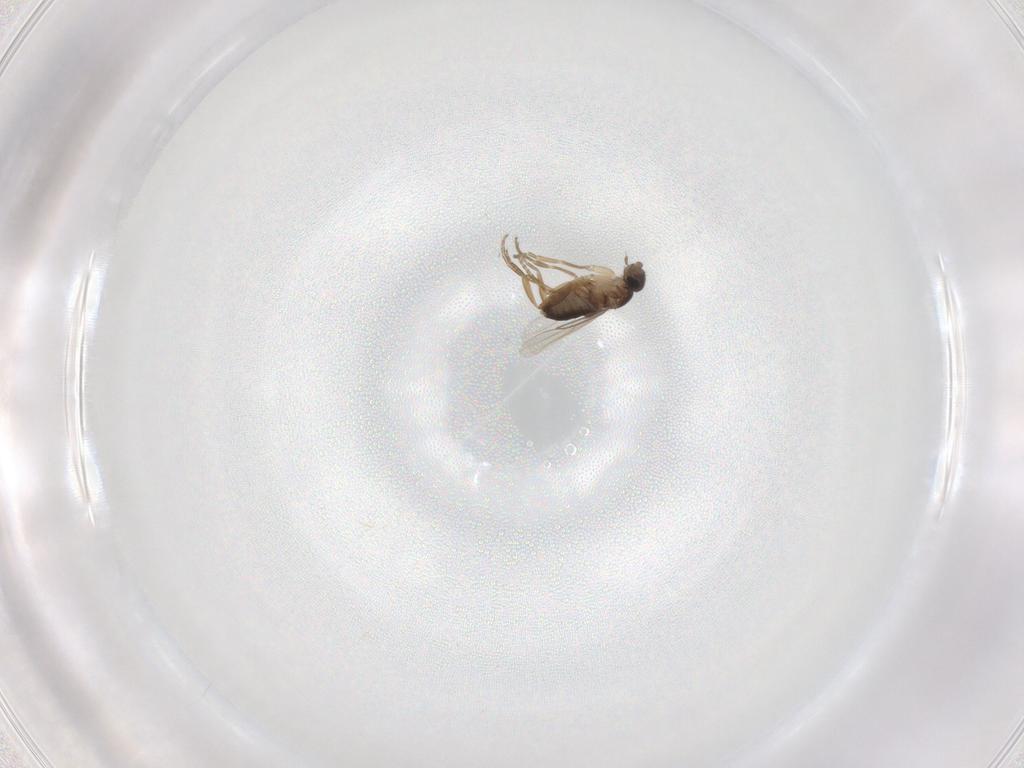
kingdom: Animalia
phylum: Arthropoda
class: Insecta
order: Diptera
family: Phoridae
